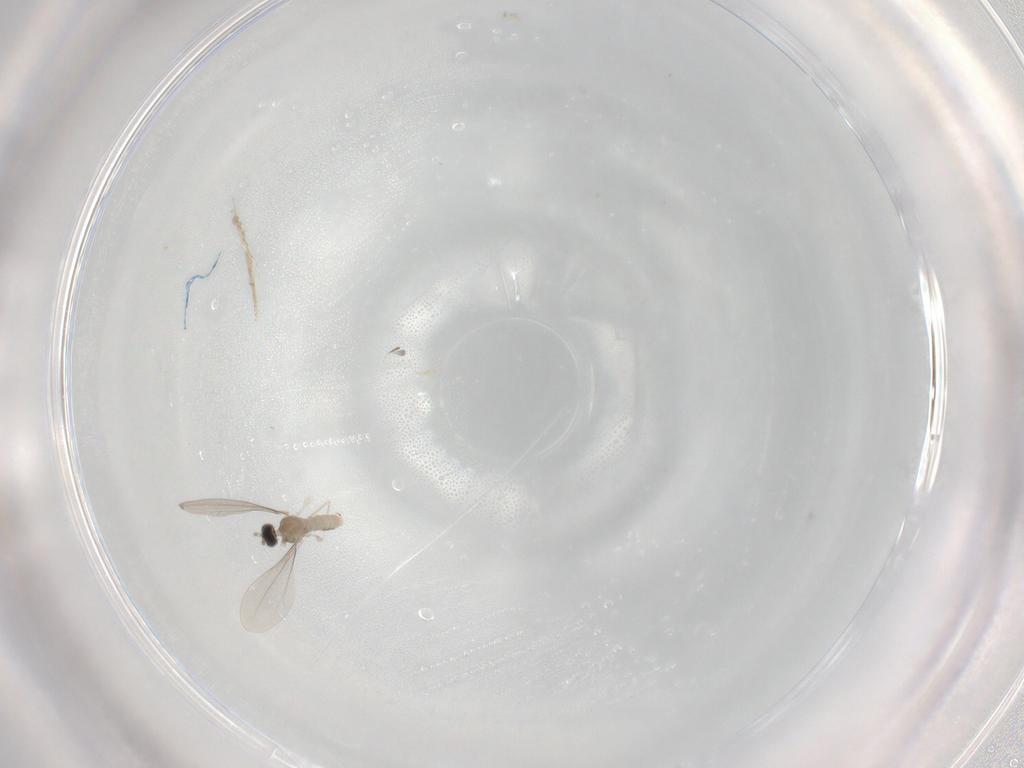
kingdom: Animalia
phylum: Arthropoda
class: Insecta
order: Diptera
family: Cecidomyiidae
